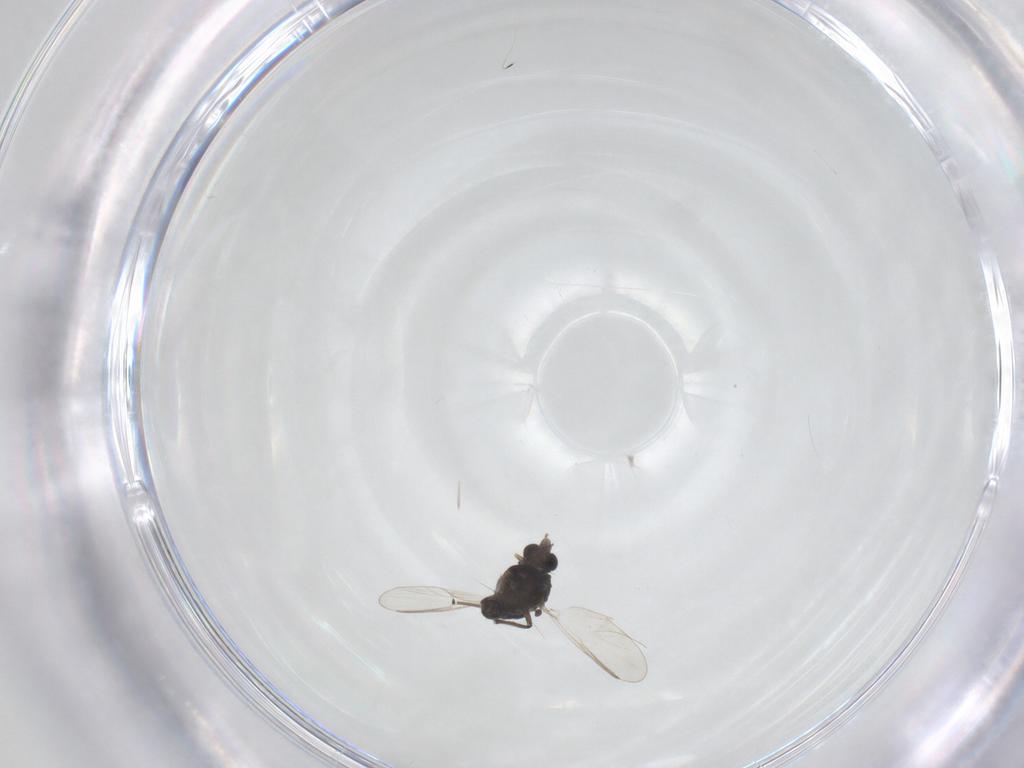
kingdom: Animalia
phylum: Arthropoda
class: Insecta
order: Diptera
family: Chironomidae
